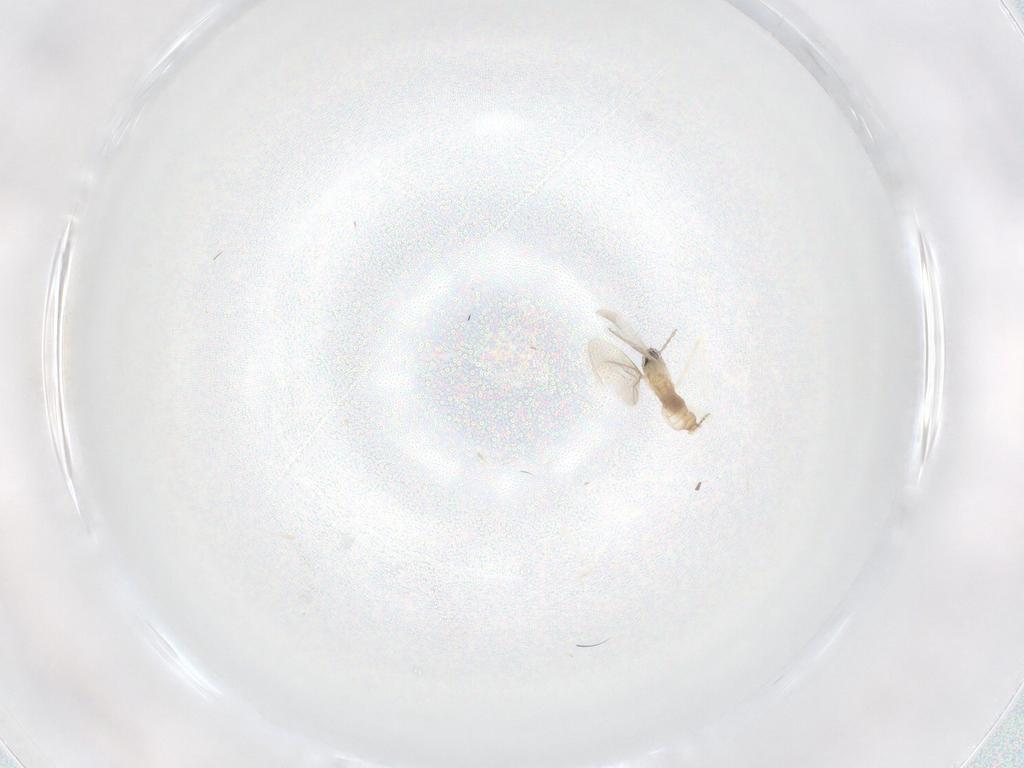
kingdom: Animalia
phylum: Arthropoda
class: Insecta
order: Diptera
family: Cecidomyiidae
